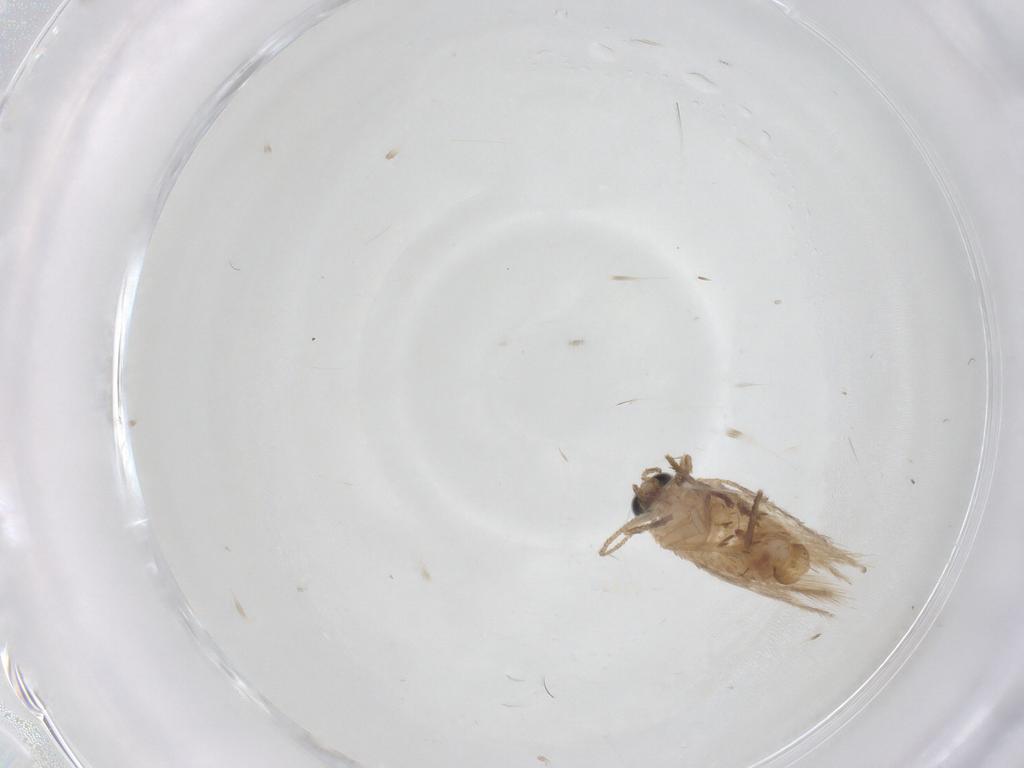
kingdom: Animalia
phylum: Arthropoda
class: Insecta
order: Lepidoptera
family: Nepticulidae
